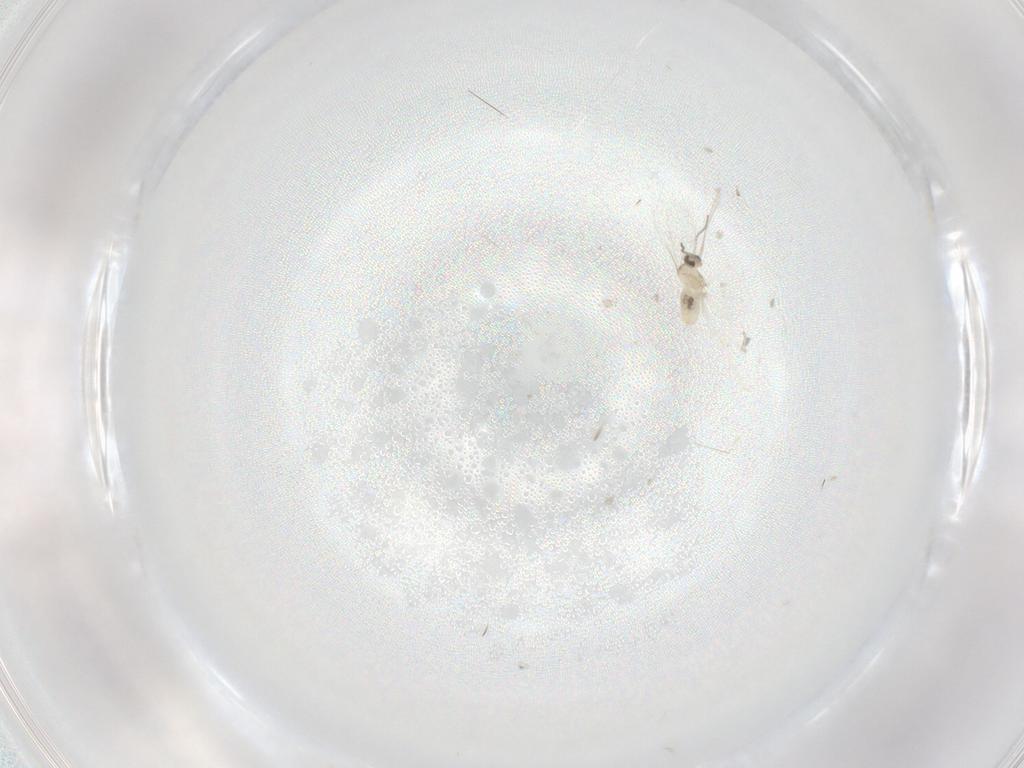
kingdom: Animalia
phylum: Arthropoda
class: Insecta
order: Diptera
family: Cecidomyiidae
